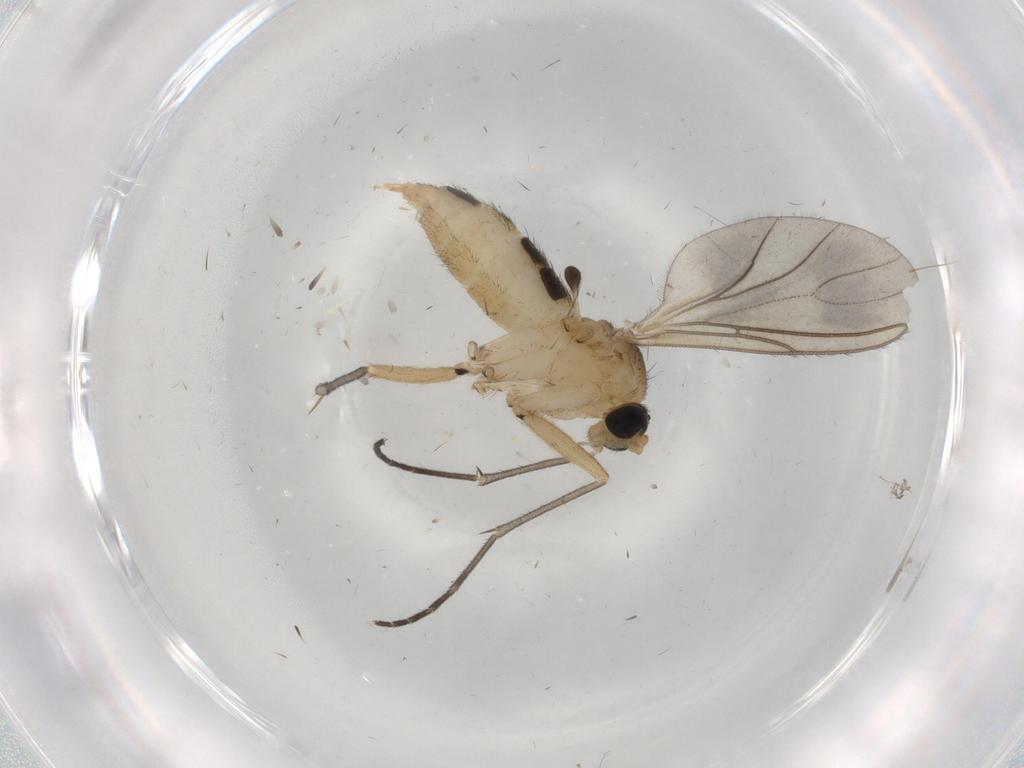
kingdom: Animalia
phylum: Arthropoda
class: Insecta
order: Diptera
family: Sciaridae
